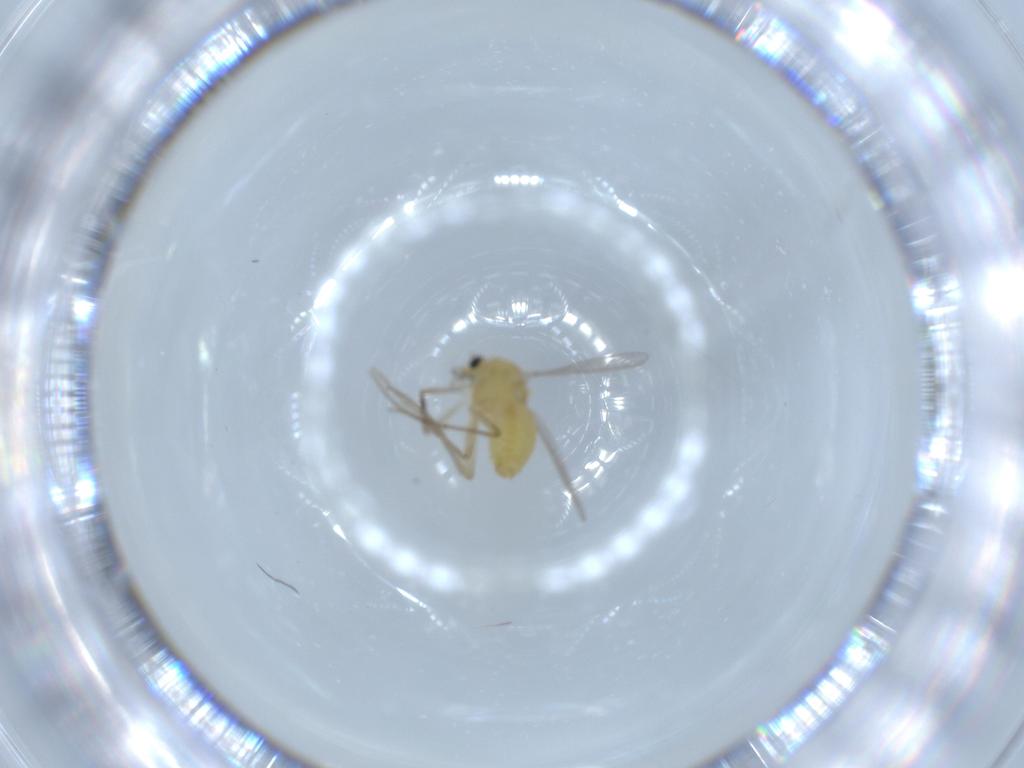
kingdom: Animalia
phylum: Arthropoda
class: Insecta
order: Diptera
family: Chironomidae
